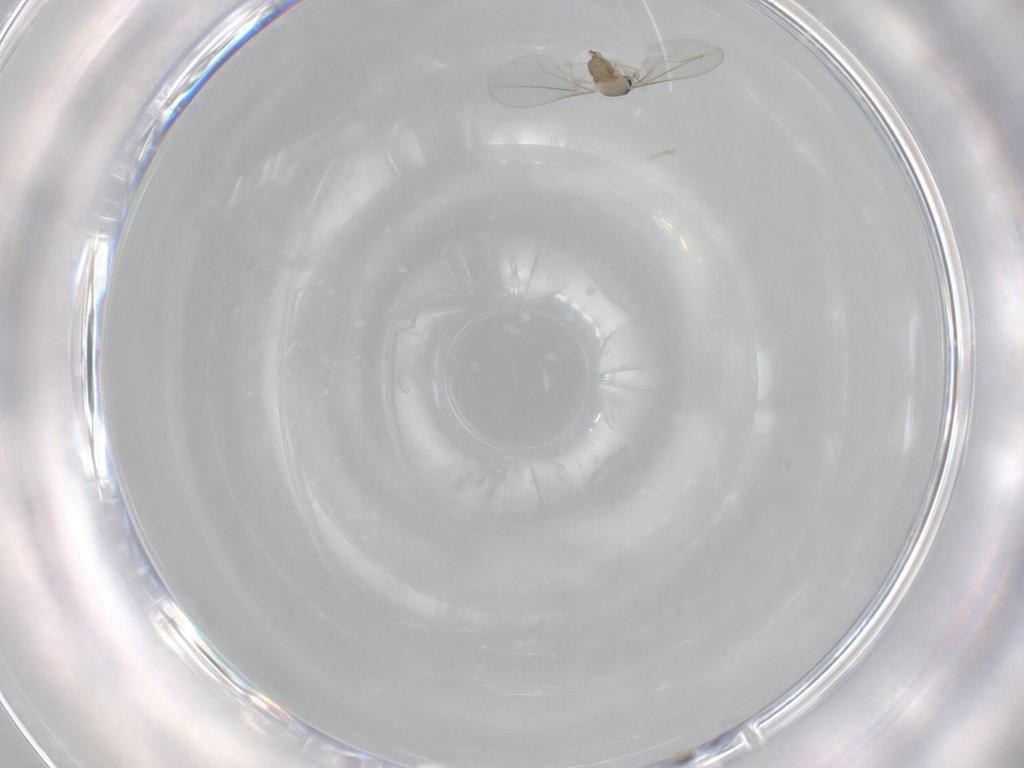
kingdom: Animalia
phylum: Arthropoda
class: Insecta
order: Diptera
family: Cecidomyiidae
